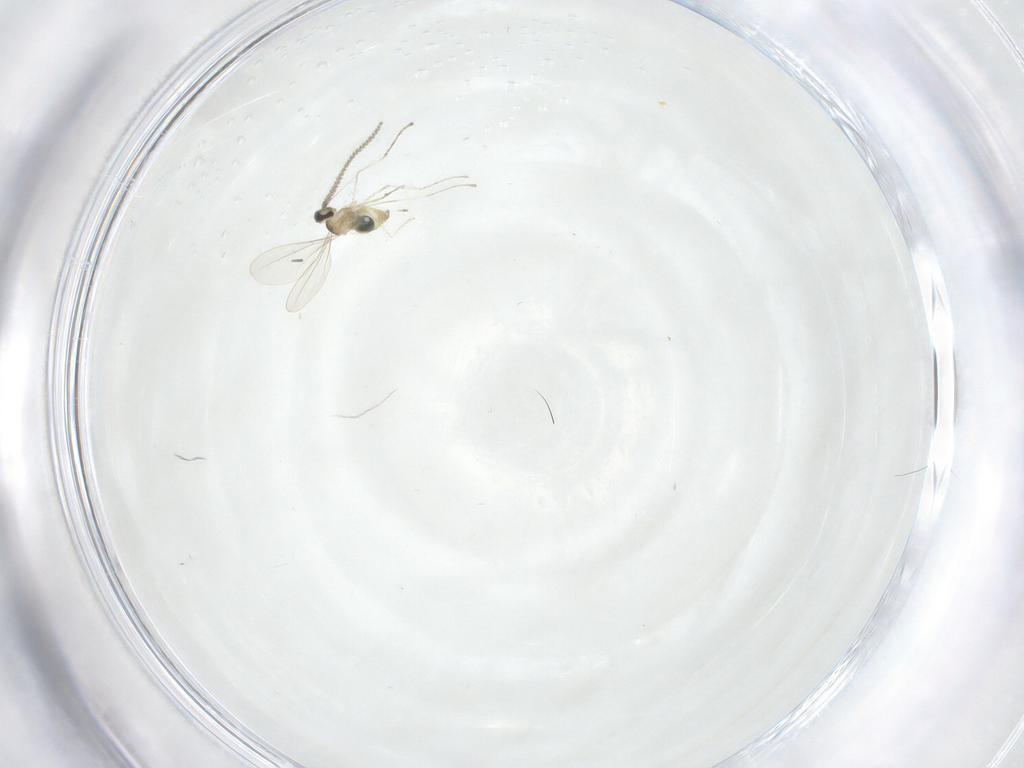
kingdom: Animalia
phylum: Arthropoda
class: Insecta
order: Diptera
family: Cecidomyiidae
